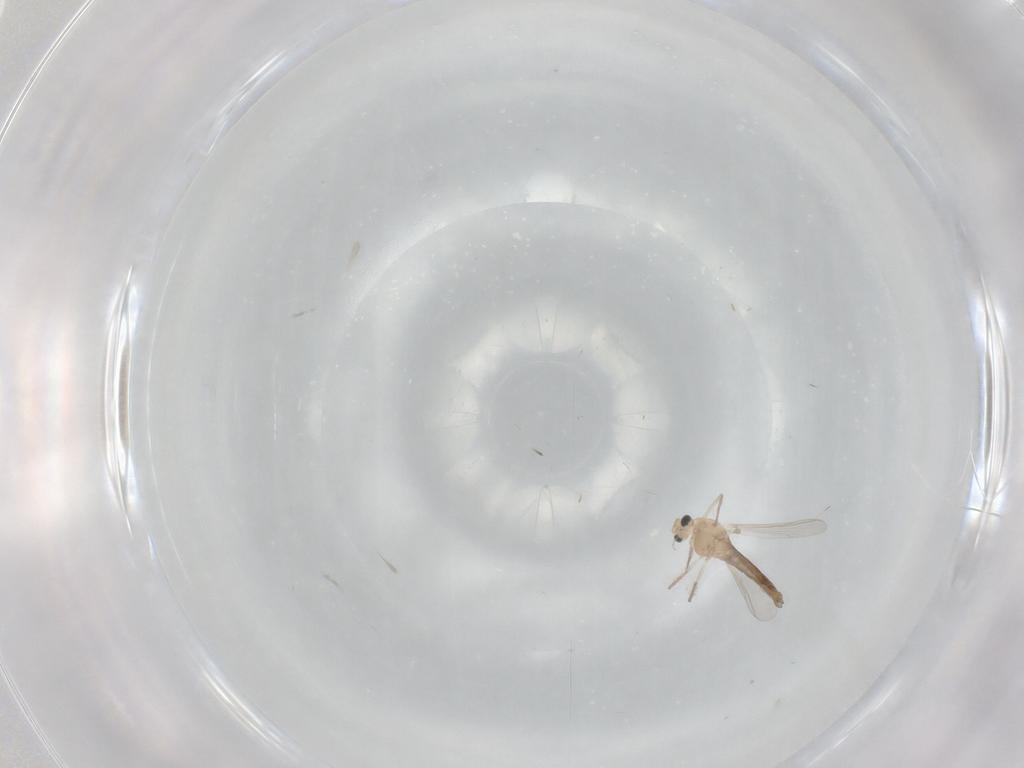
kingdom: Animalia
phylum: Arthropoda
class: Insecta
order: Diptera
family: Chironomidae
